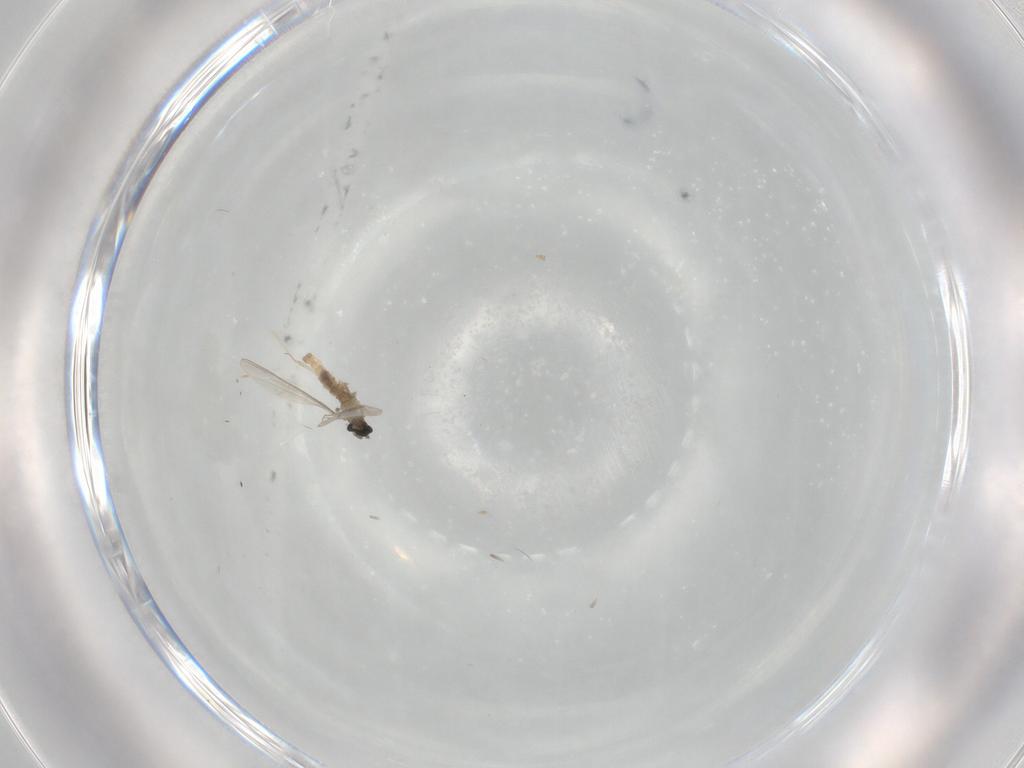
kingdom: Animalia
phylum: Arthropoda
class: Insecta
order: Diptera
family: Cecidomyiidae
